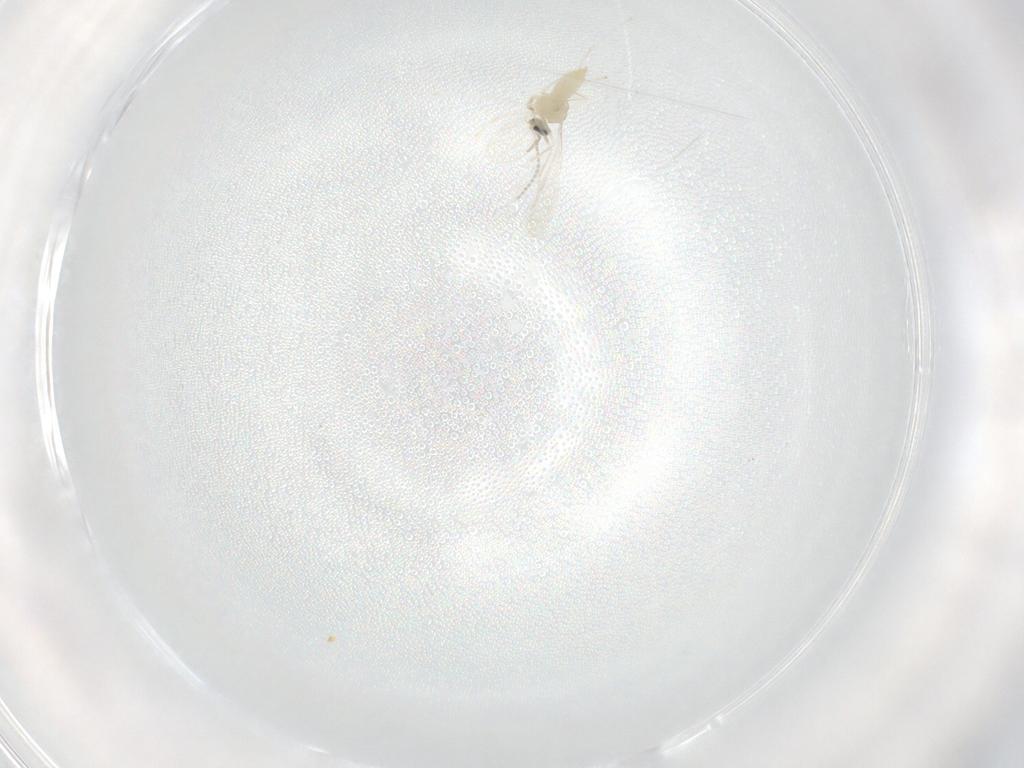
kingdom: Animalia
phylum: Arthropoda
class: Insecta
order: Diptera
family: Cecidomyiidae
